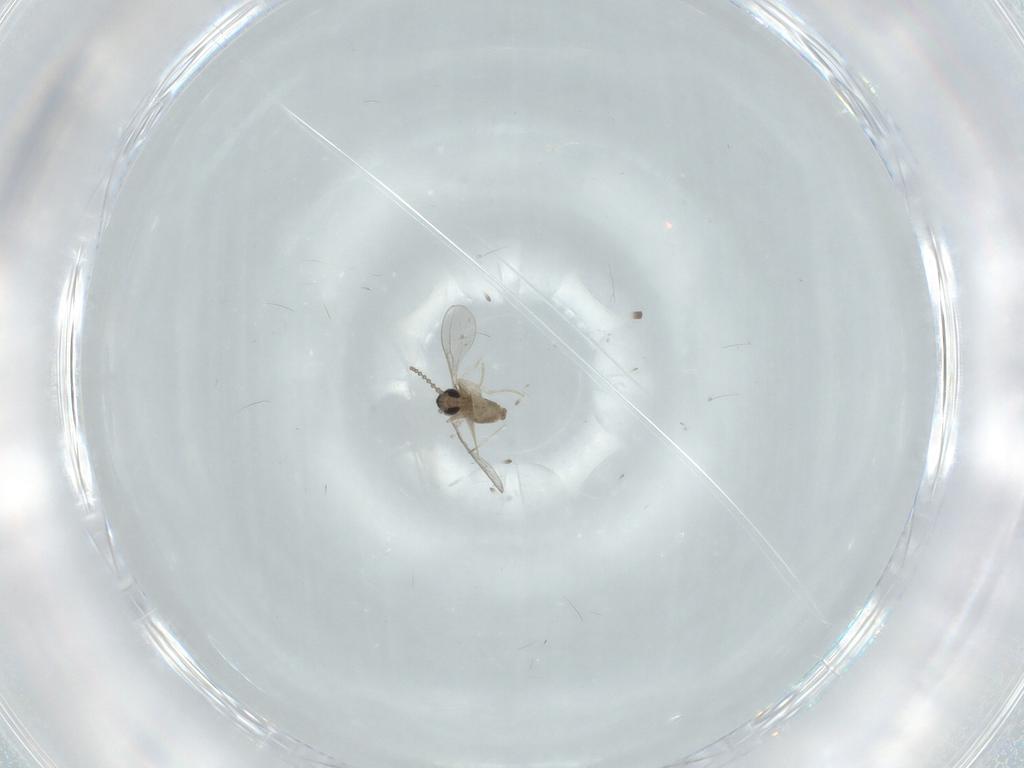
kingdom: Animalia
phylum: Arthropoda
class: Insecta
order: Diptera
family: Cecidomyiidae
